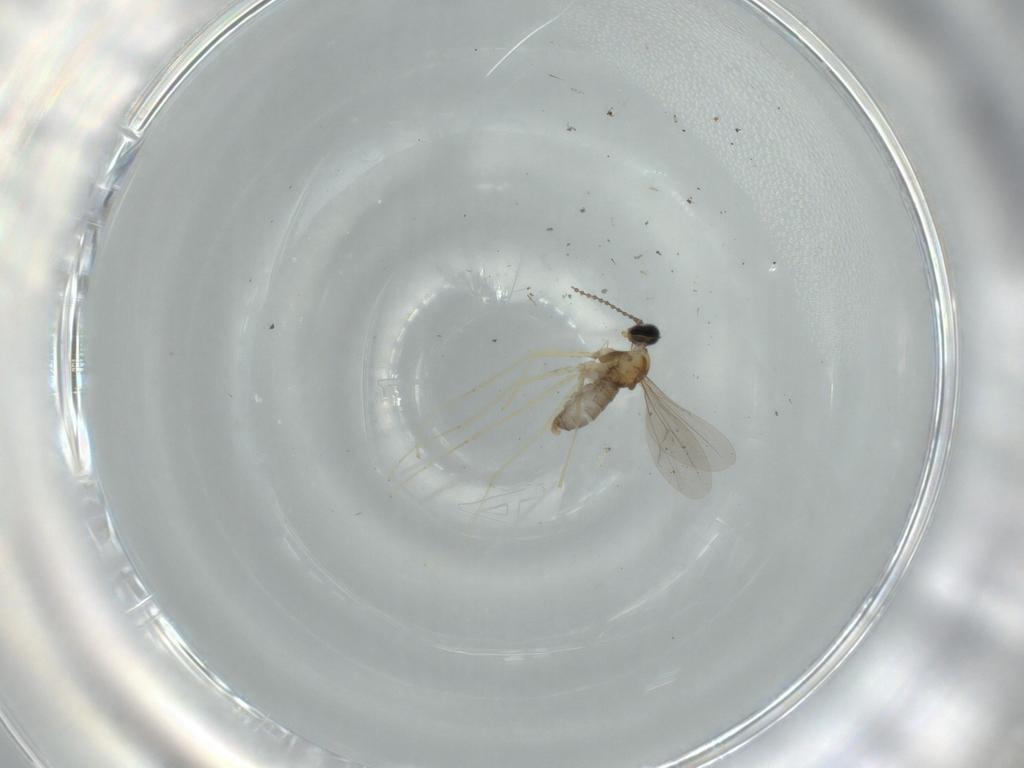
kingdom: Animalia
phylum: Arthropoda
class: Insecta
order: Diptera
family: Cecidomyiidae
